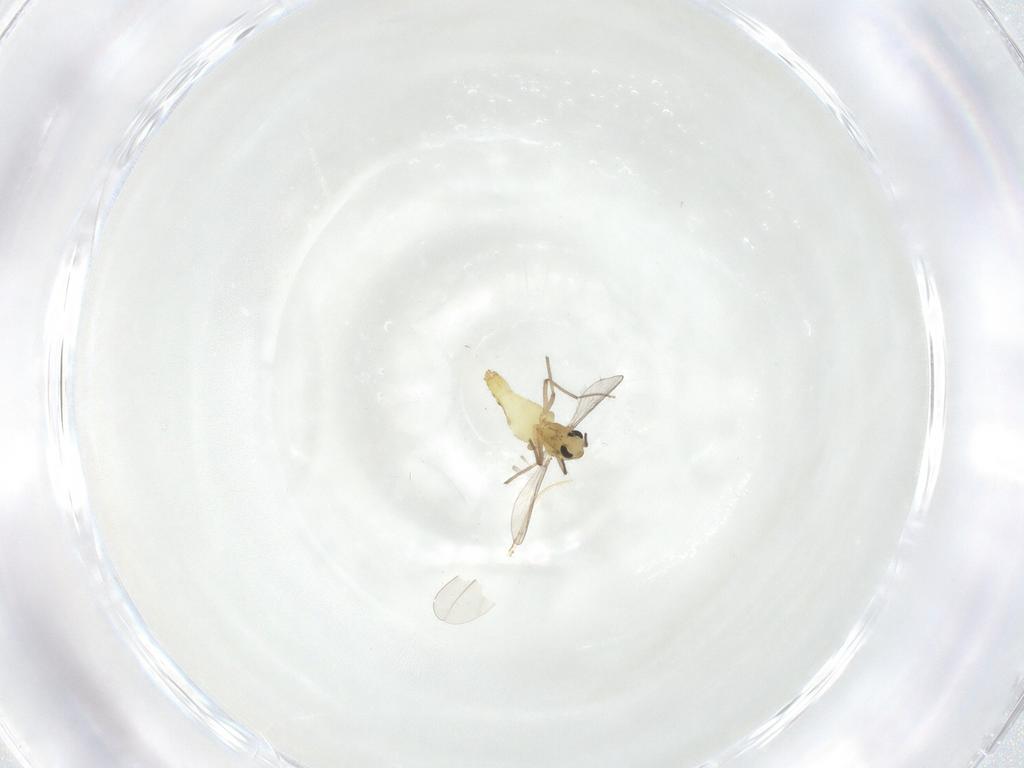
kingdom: Animalia
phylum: Arthropoda
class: Insecta
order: Diptera
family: Chironomidae
